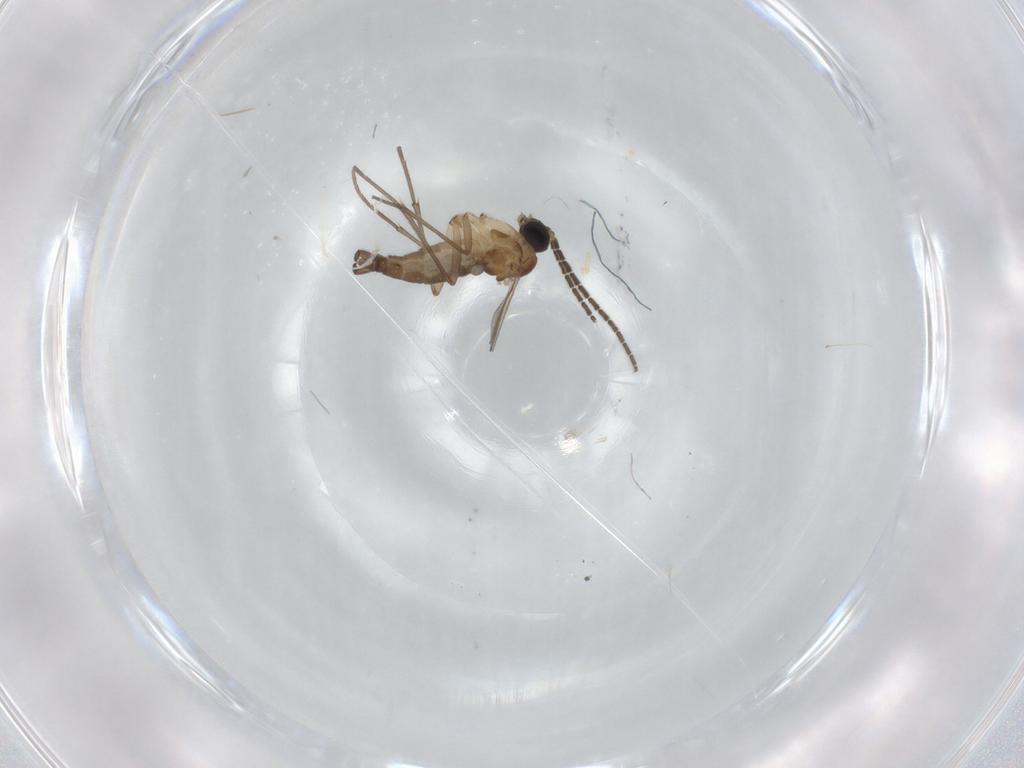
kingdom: Animalia
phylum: Arthropoda
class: Insecta
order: Diptera
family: Sciaridae
